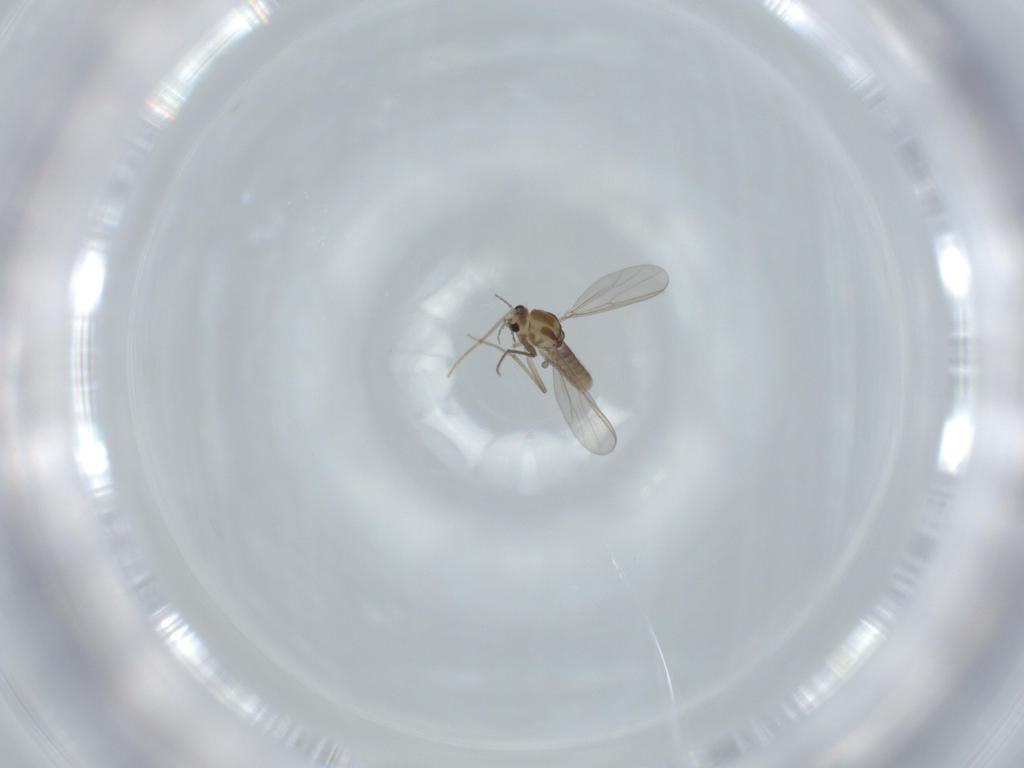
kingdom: Animalia
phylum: Arthropoda
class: Insecta
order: Diptera
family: Chironomidae
